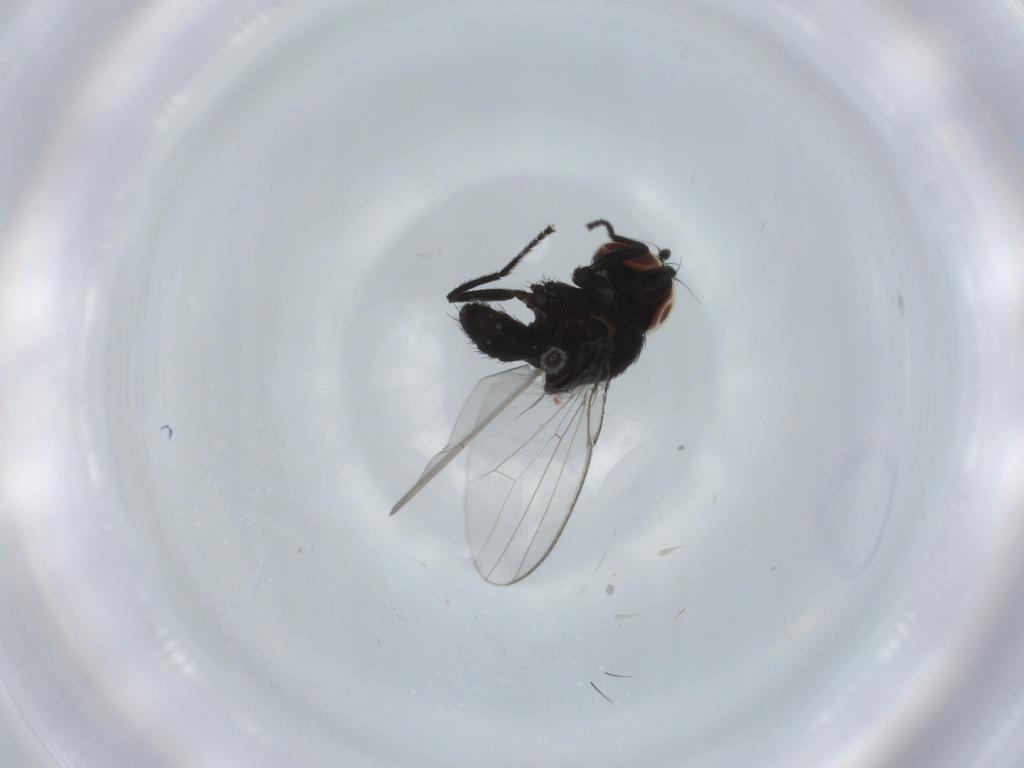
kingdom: Animalia
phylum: Arthropoda
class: Insecta
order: Diptera
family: Milichiidae
